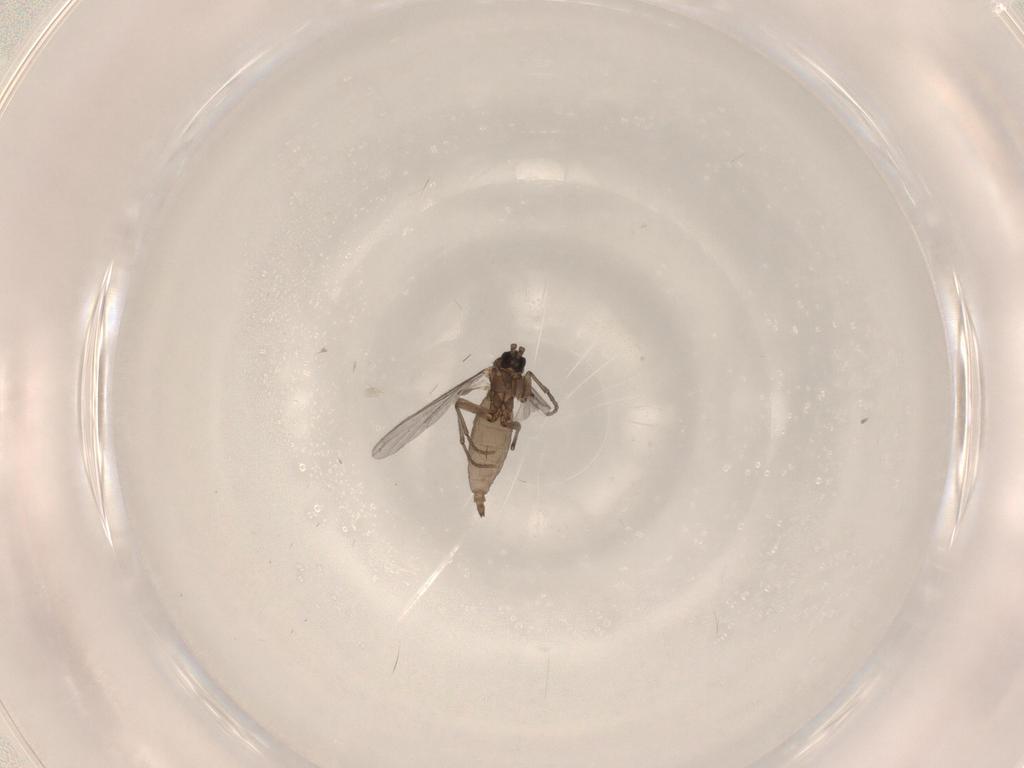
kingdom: Animalia
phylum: Arthropoda
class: Insecta
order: Diptera
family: Sciaridae
